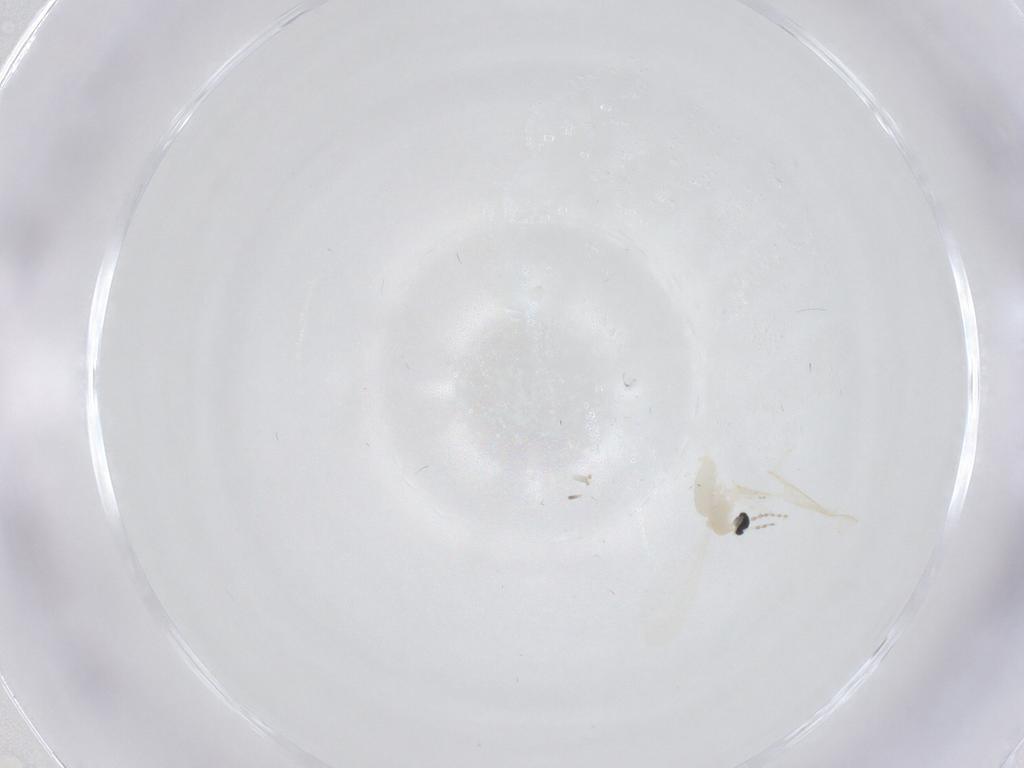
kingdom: Animalia
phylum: Arthropoda
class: Insecta
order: Diptera
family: Cecidomyiidae
